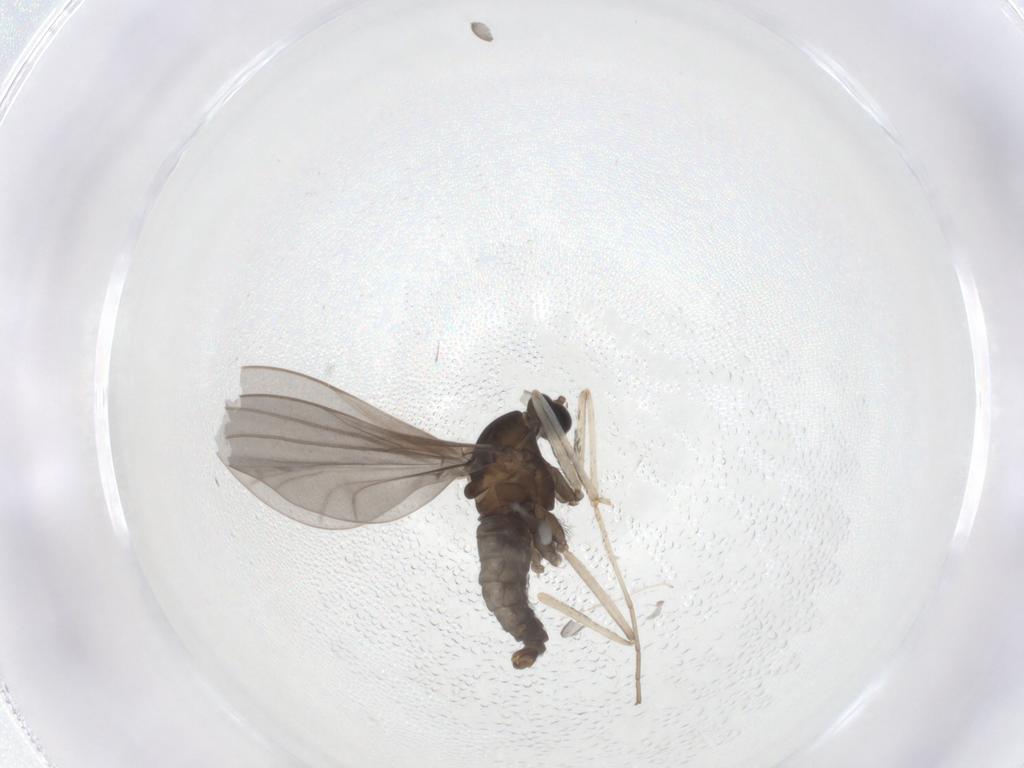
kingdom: Animalia
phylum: Arthropoda
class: Insecta
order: Diptera
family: Chironomidae
